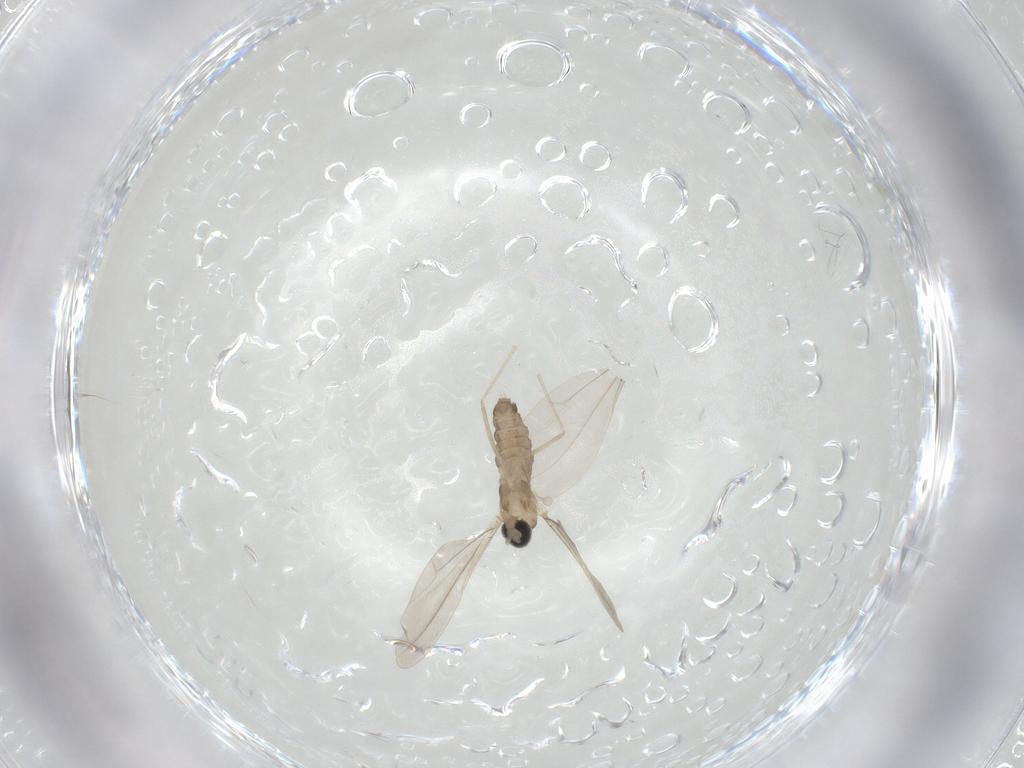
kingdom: Animalia
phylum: Arthropoda
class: Insecta
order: Diptera
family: Cecidomyiidae
